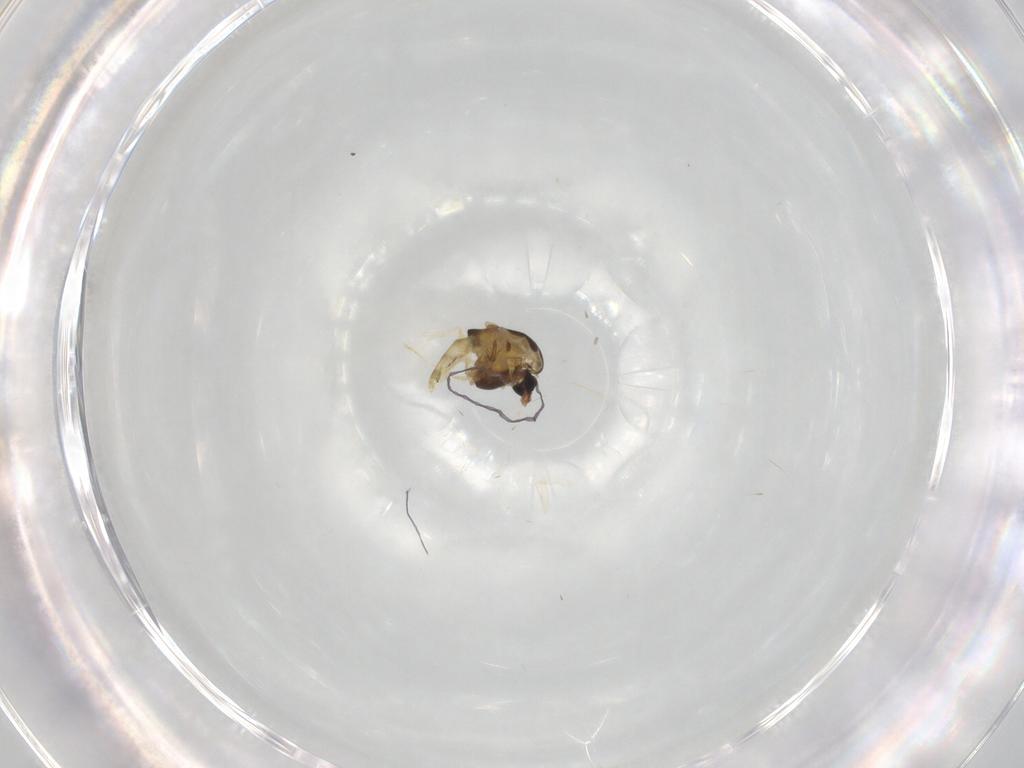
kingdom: Animalia
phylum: Arthropoda
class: Insecta
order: Diptera
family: Chironomidae
